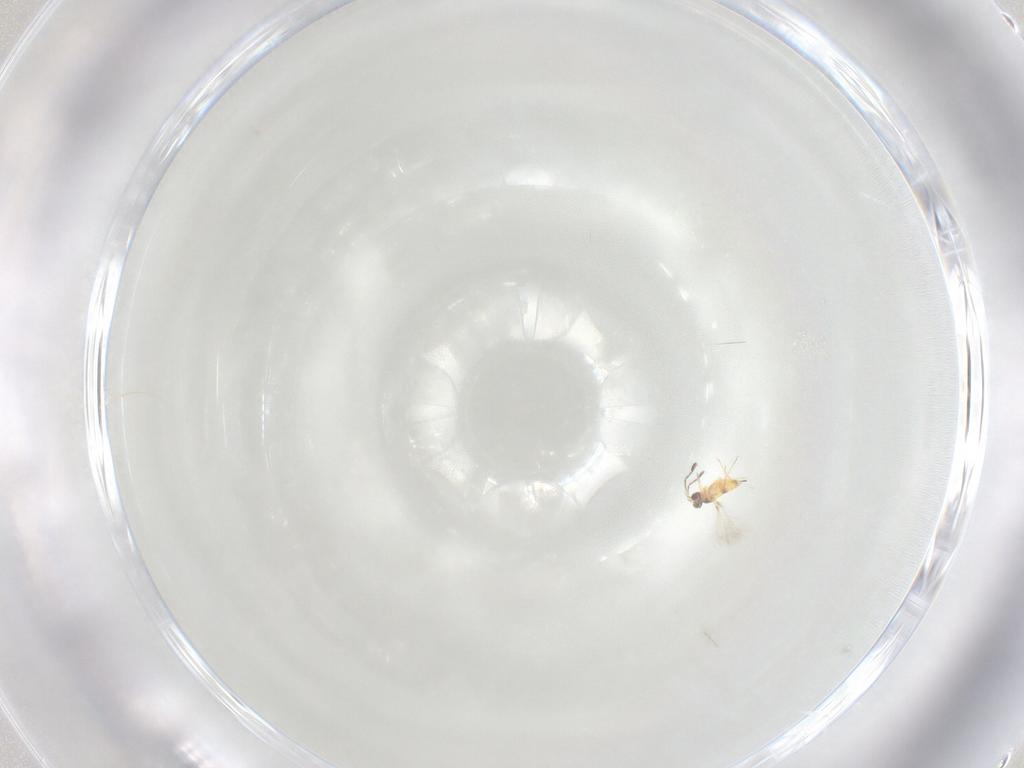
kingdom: Animalia
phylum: Arthropoda
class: Insecta
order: Hymenoptera
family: Mymaridae
